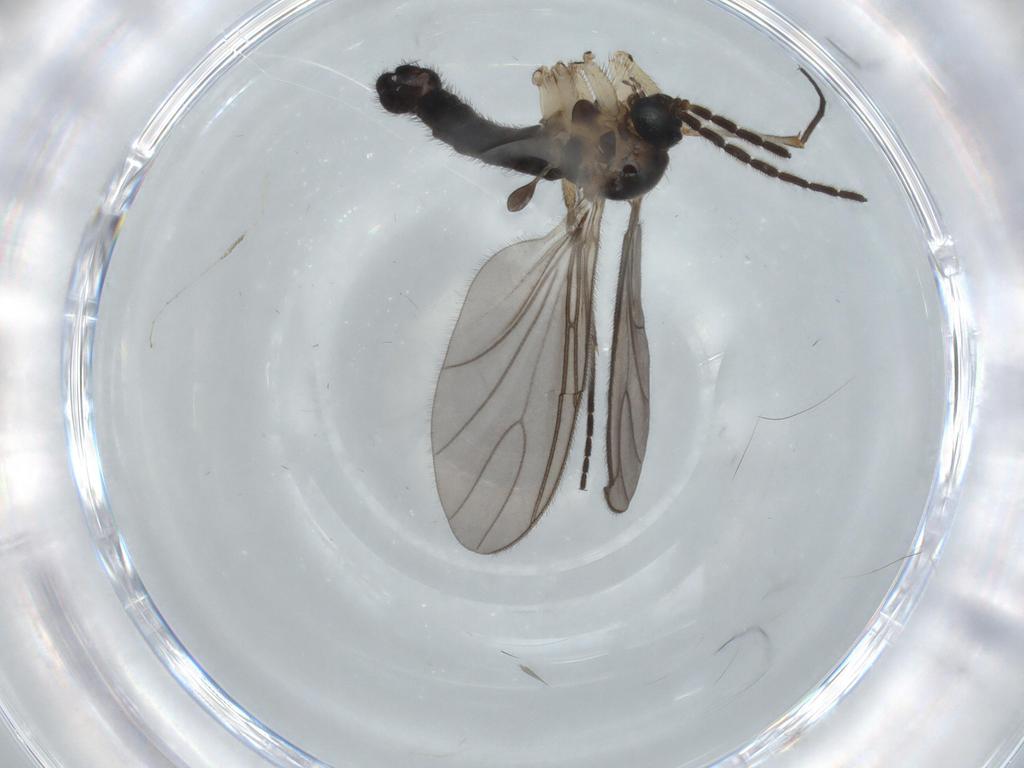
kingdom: Animalia
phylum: Arthropoda
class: Insecta
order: Diptera
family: Sciaridae
